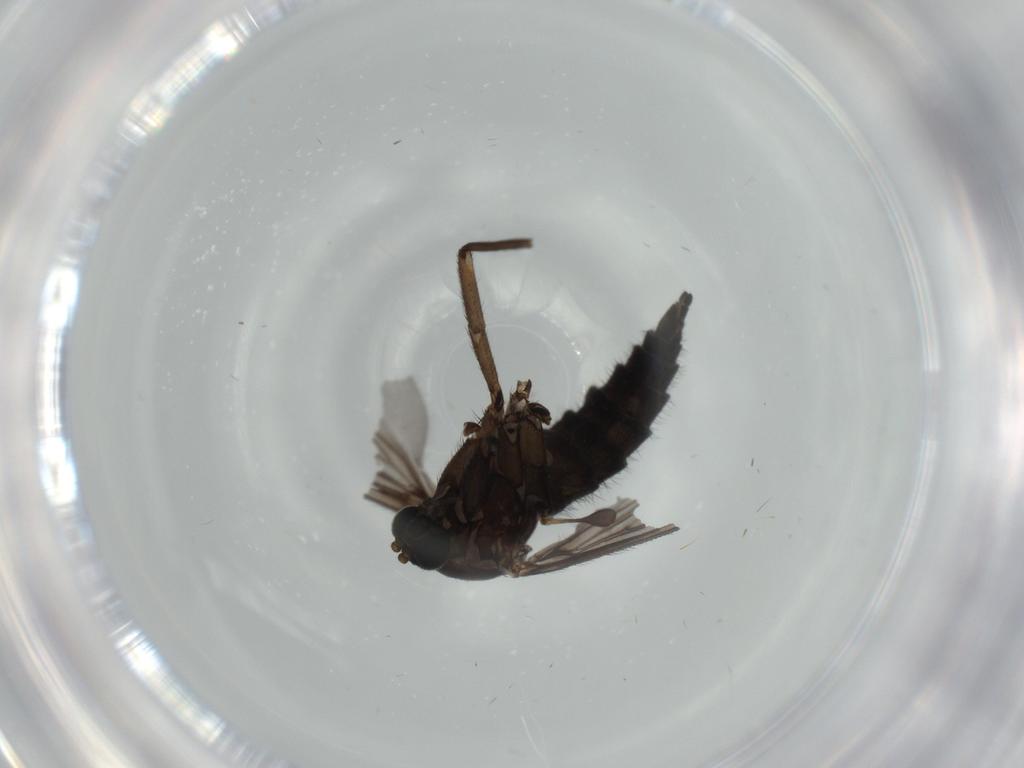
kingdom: Animalia
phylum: Arthropoda
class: Insecta
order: Diptera
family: Sciaridae
